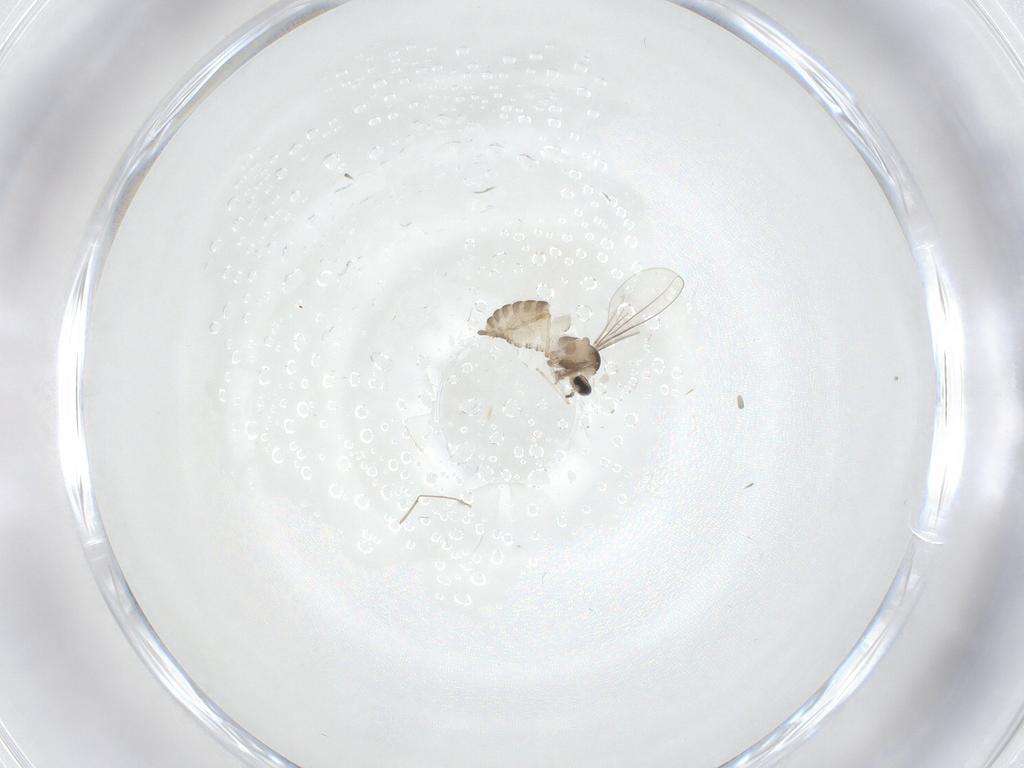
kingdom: Animalia
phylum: Arthropoda
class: Insecta
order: Diptera
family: Cecidomyiidae
